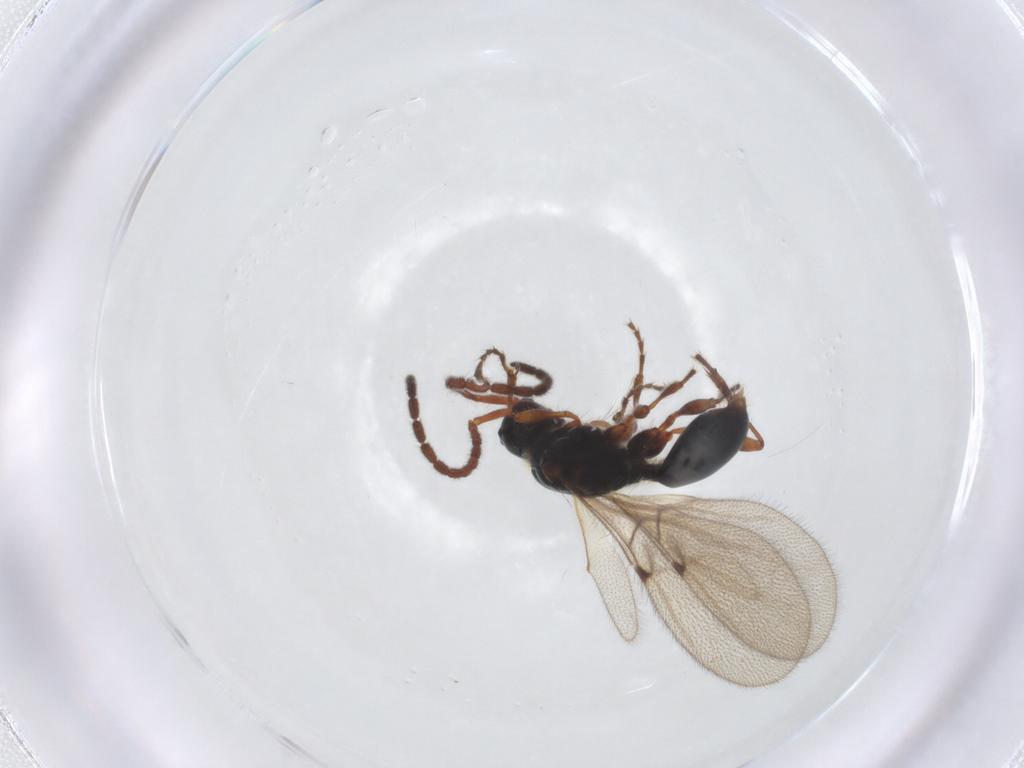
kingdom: Animalia
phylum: Arthropoda
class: Insecta
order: Hymenoptera
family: Diapriidae
